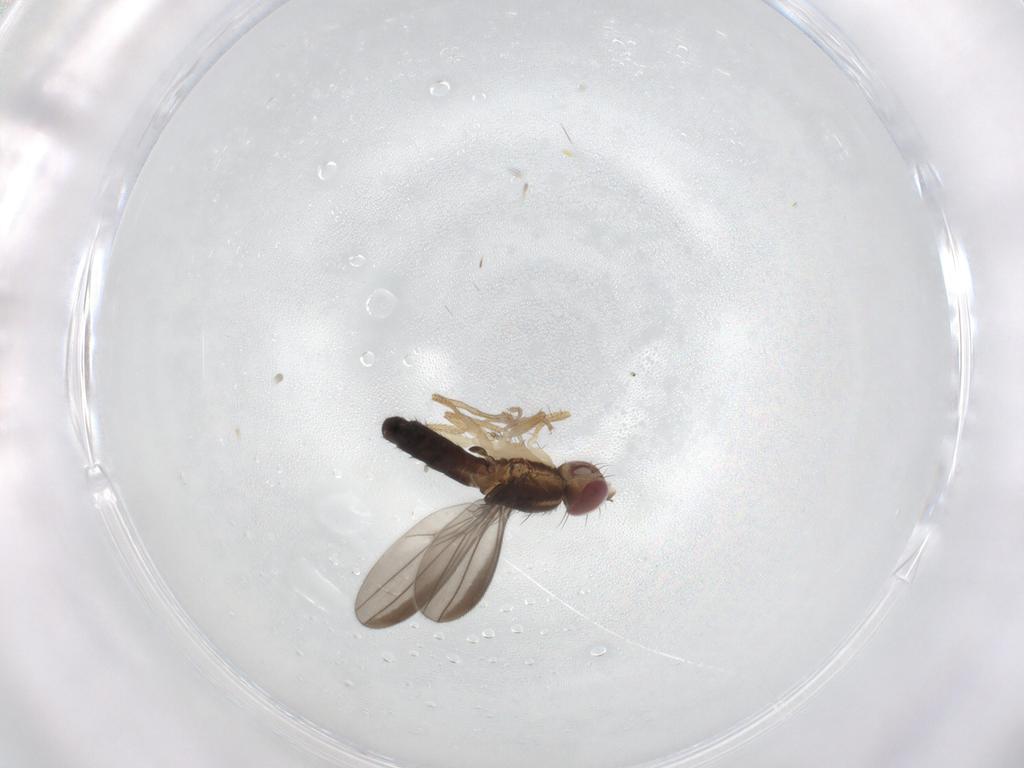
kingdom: Animalia
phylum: Arthropoda
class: Insecta
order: Diptera
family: Anthomyzidae
